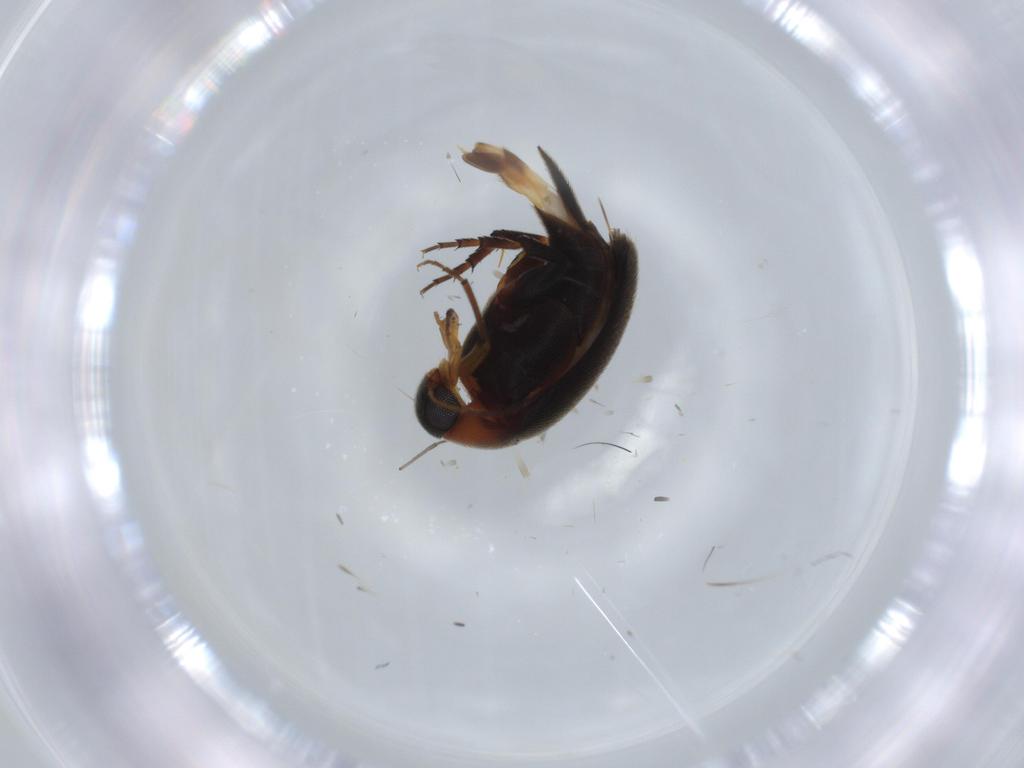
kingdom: Animalia
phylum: Arthropoda
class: Insecta
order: Coleoptera
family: Mordellidae
